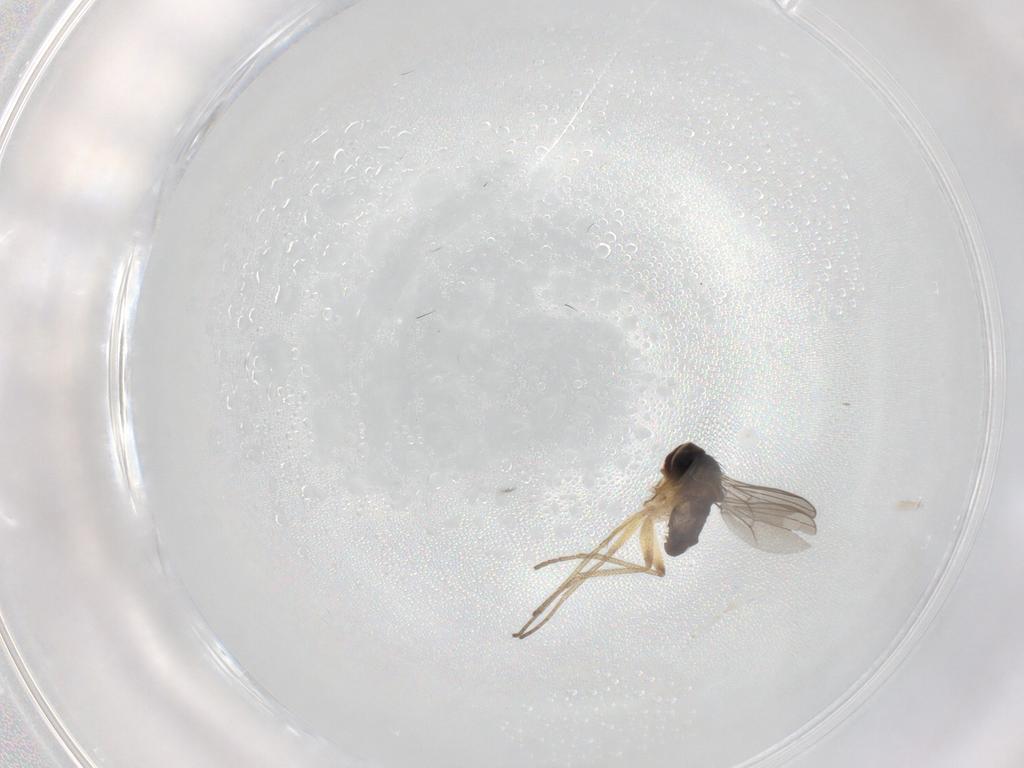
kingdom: Animalia
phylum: Arthropoda
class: Insecta
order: Diptera
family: Dolichopodidae
